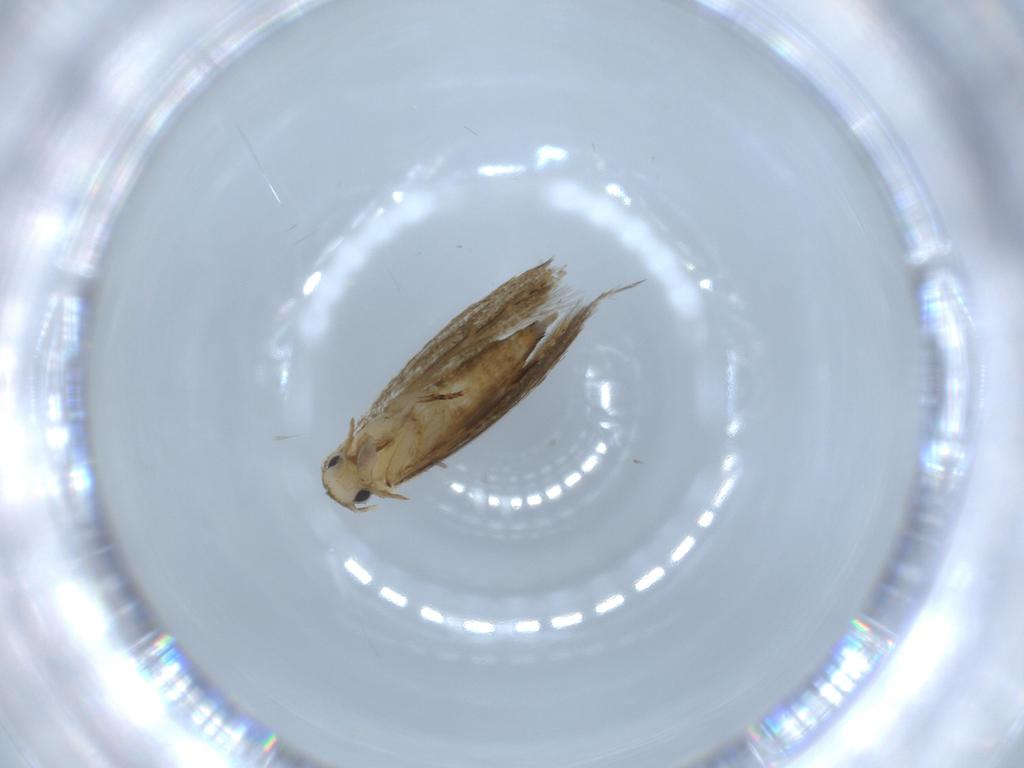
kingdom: Animalia
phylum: Arthropoda
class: Insecta
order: Lepidoptera
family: Tineidae
